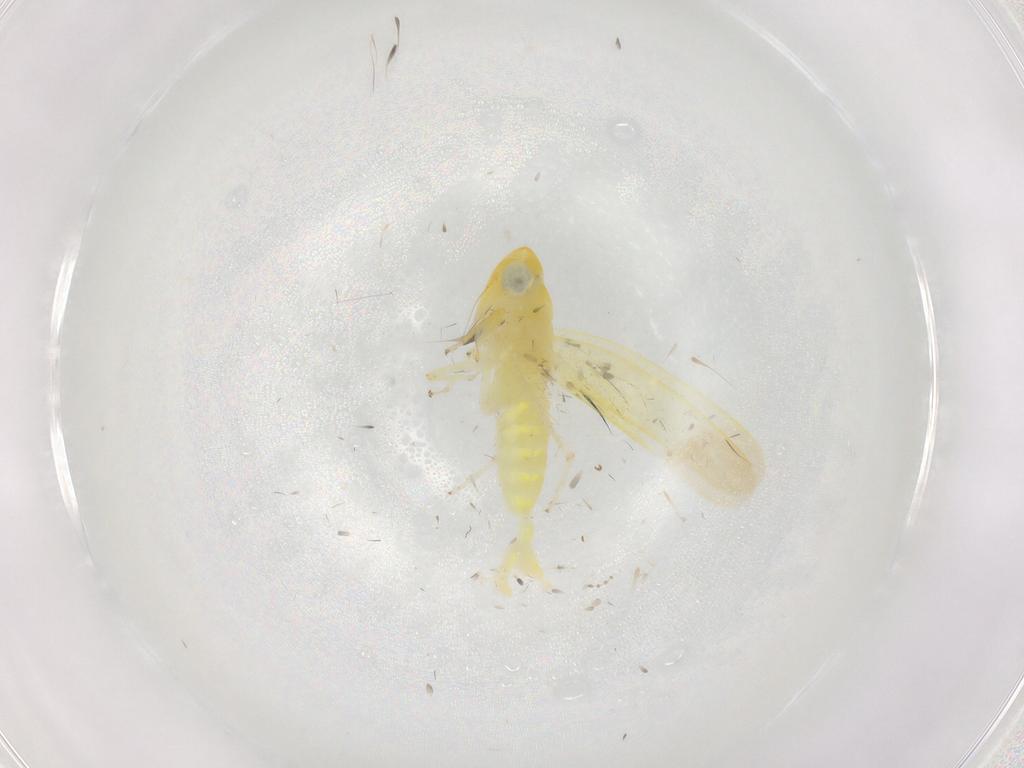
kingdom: Animalia
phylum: Arthropoda
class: Insecta
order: Hemiptera
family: Cicadellidae
